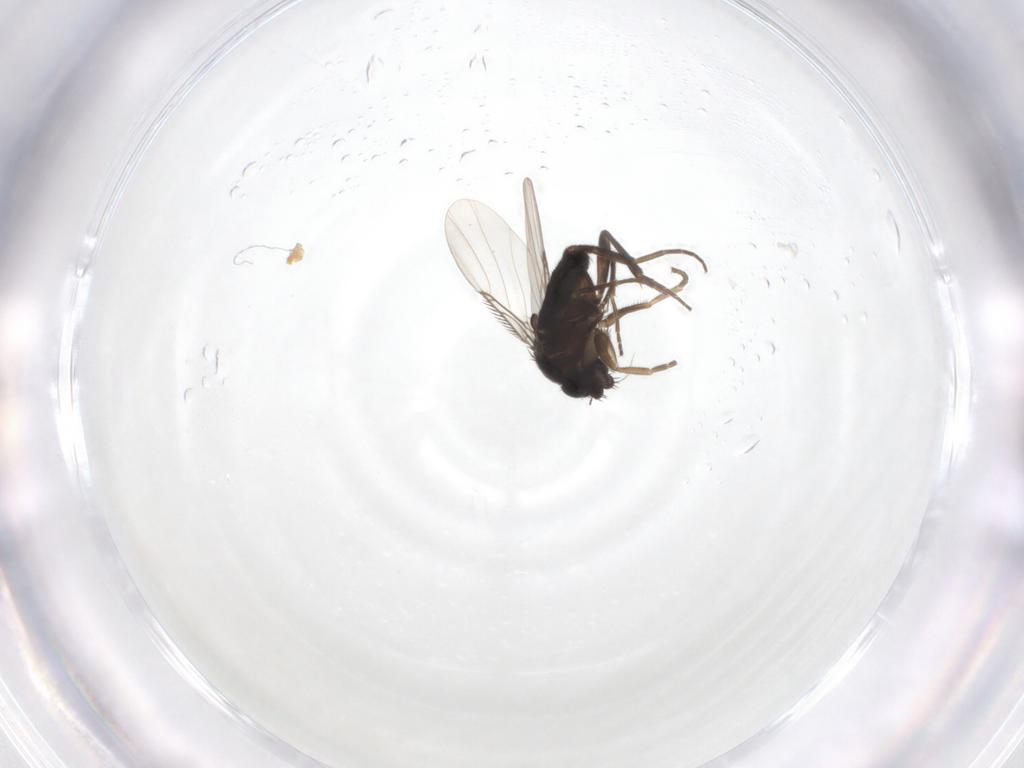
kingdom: Animalia
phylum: Arthropoda
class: Insecta
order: Diptera
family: Phoridae
